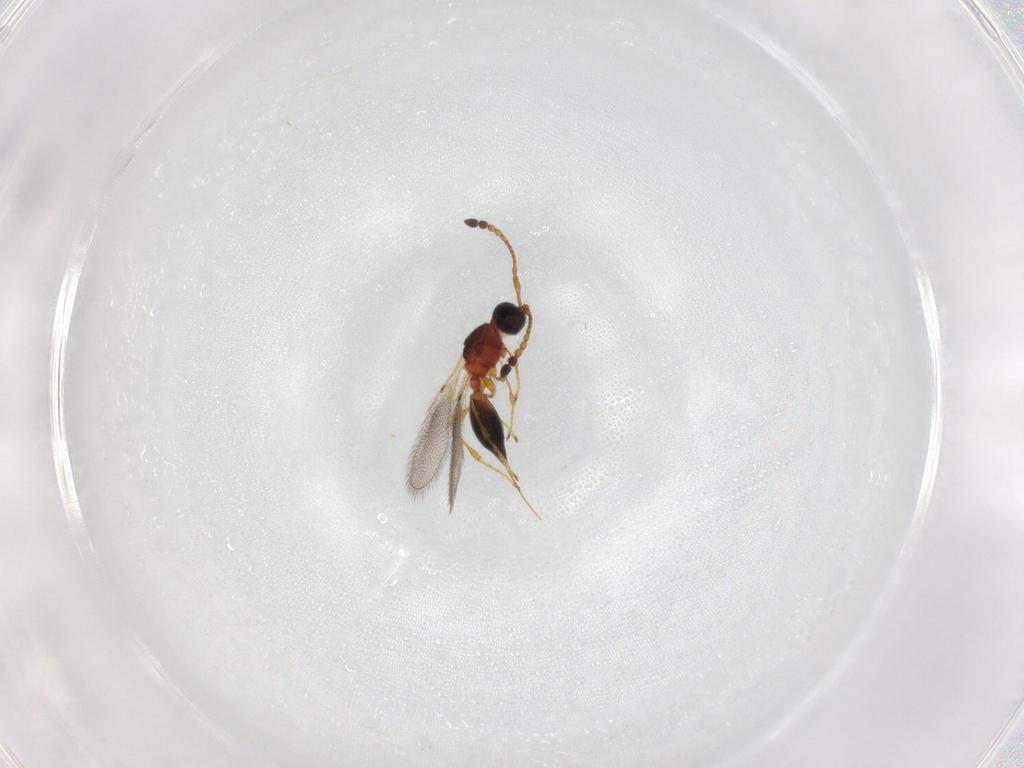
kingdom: Animalia
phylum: Arthropoda
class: Insecta
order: Hymenoptera
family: Diapriidae
